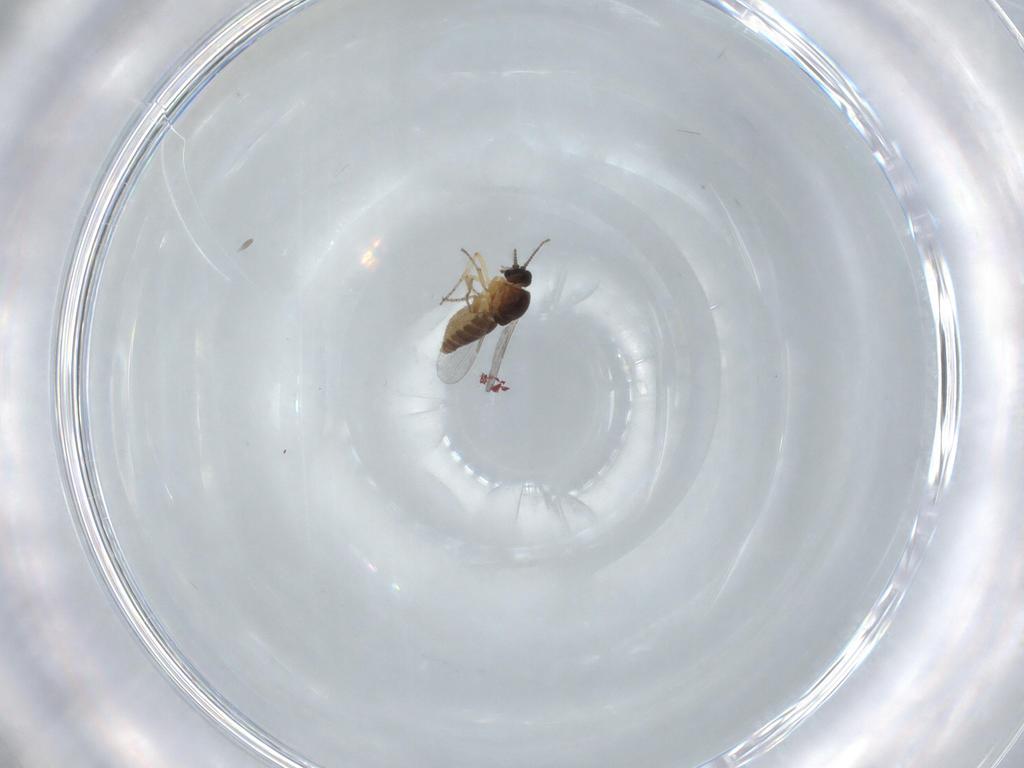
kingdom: Animalia
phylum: Arthropoda
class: Insecta
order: Diptera
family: Ceratopogonidae
